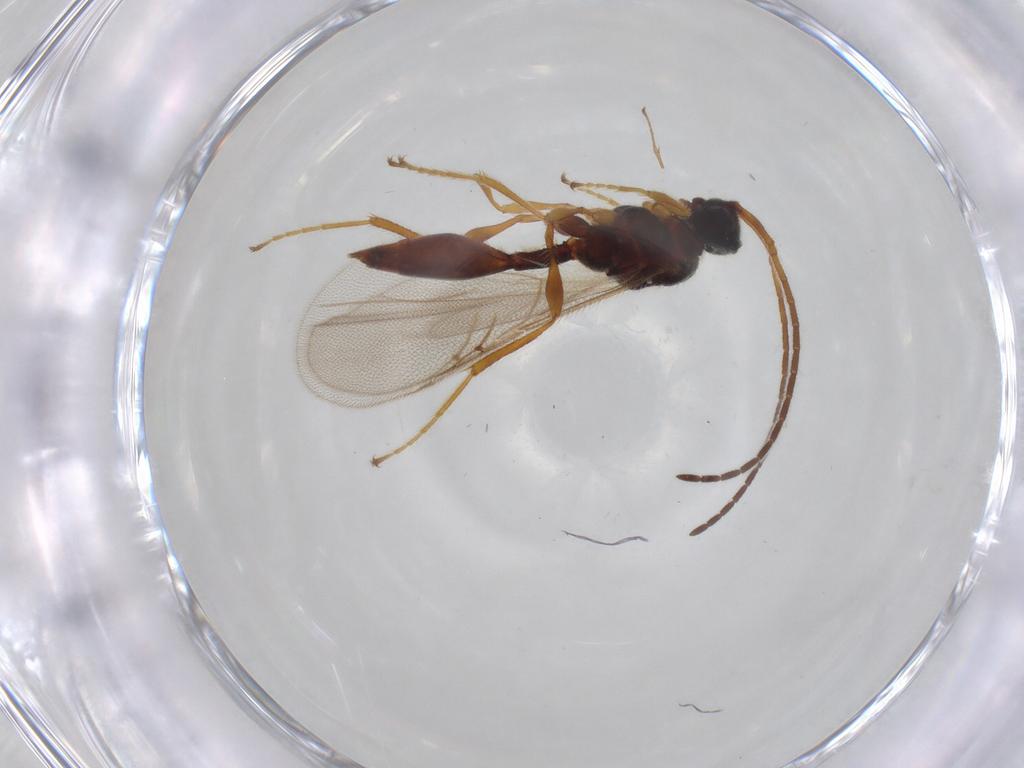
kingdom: Animalia
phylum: Arthropoda
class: Insecta
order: Hymenoptera
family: Diapriidae
